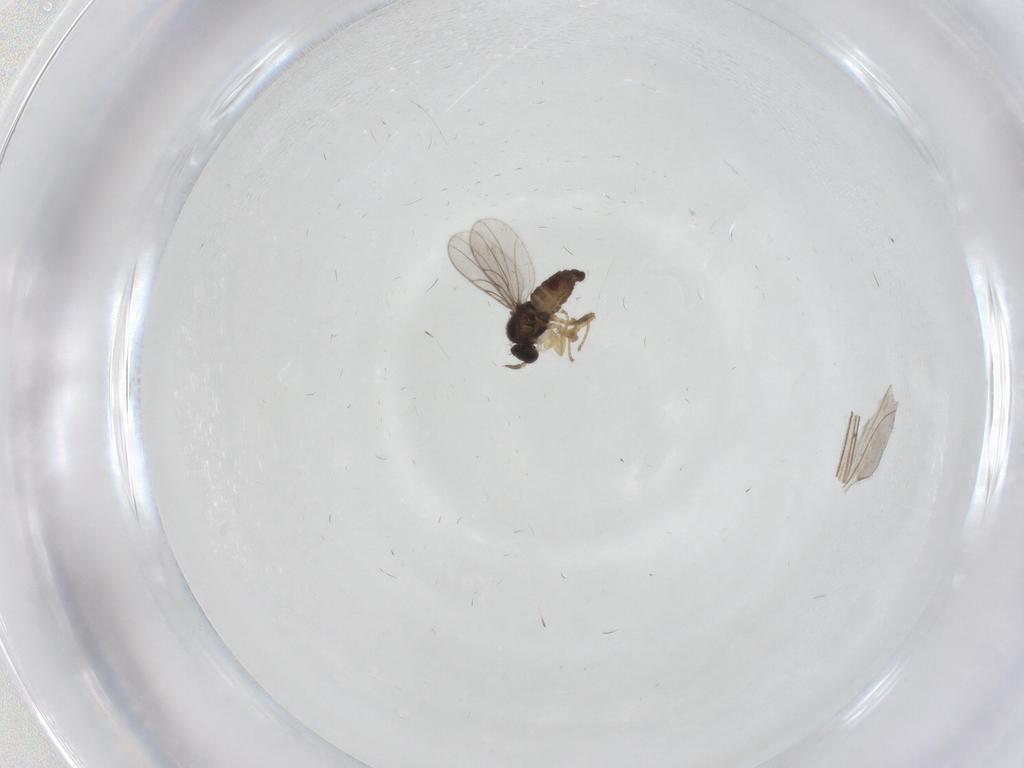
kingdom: Animalia
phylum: Arthropoda
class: Insecta
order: Diptera
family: Hybotidae
